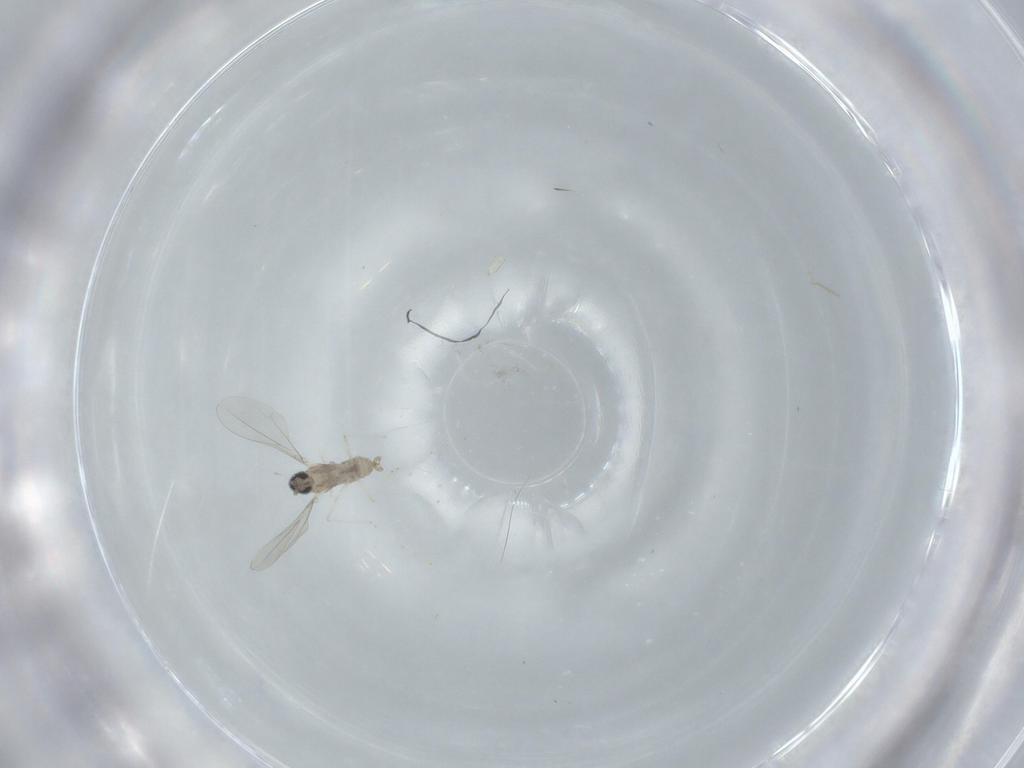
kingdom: Animalia
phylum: Arthropoda
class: Insecta
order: Diptera
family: Cecidomyiidae
